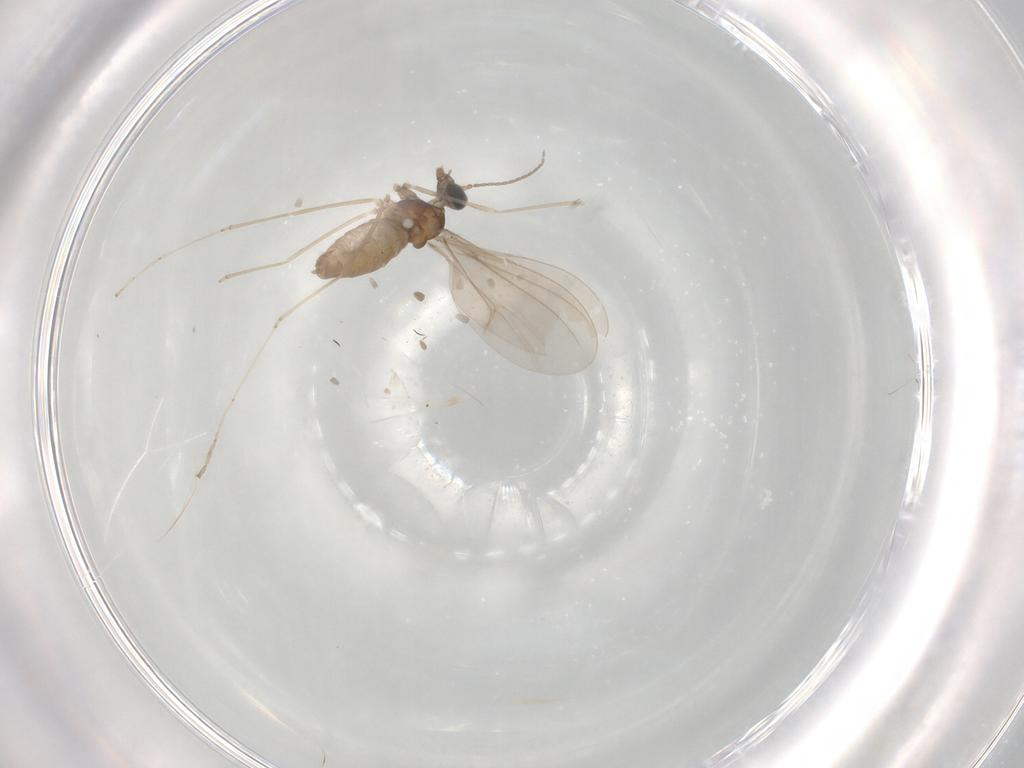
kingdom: Animalia
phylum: Arthropoda
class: Insecta
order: Diptera
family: Cecidomyiidae
